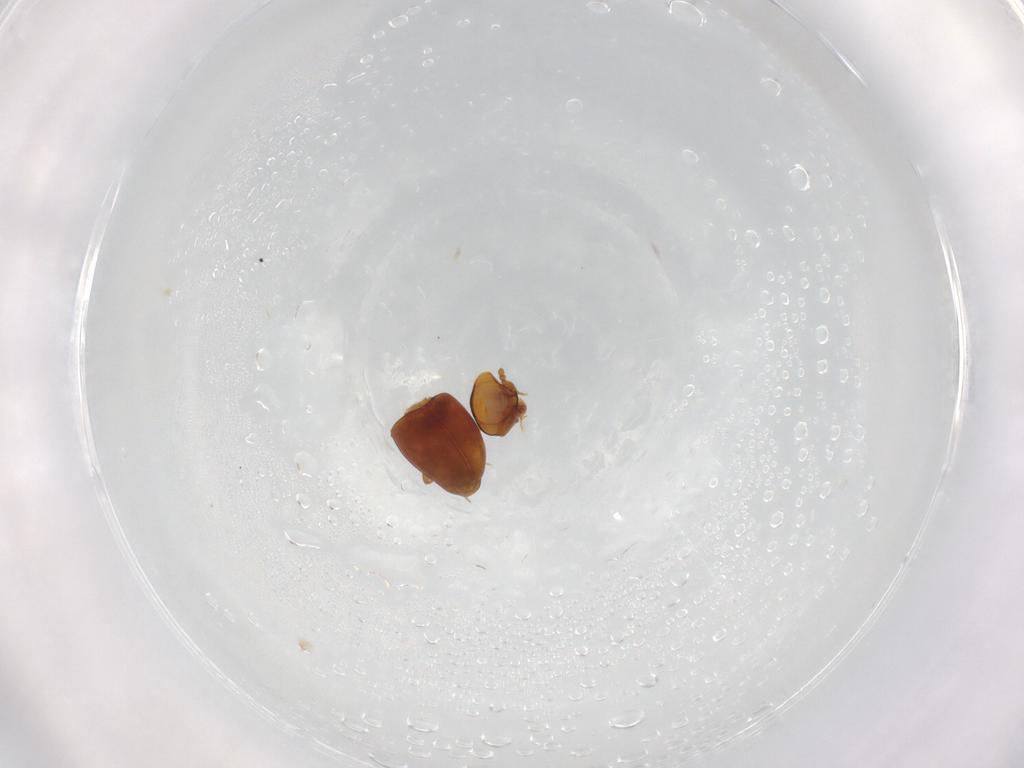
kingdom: Animalia
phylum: Arthropoda
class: Insecta
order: Coleoptera
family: Cryptophagidae
